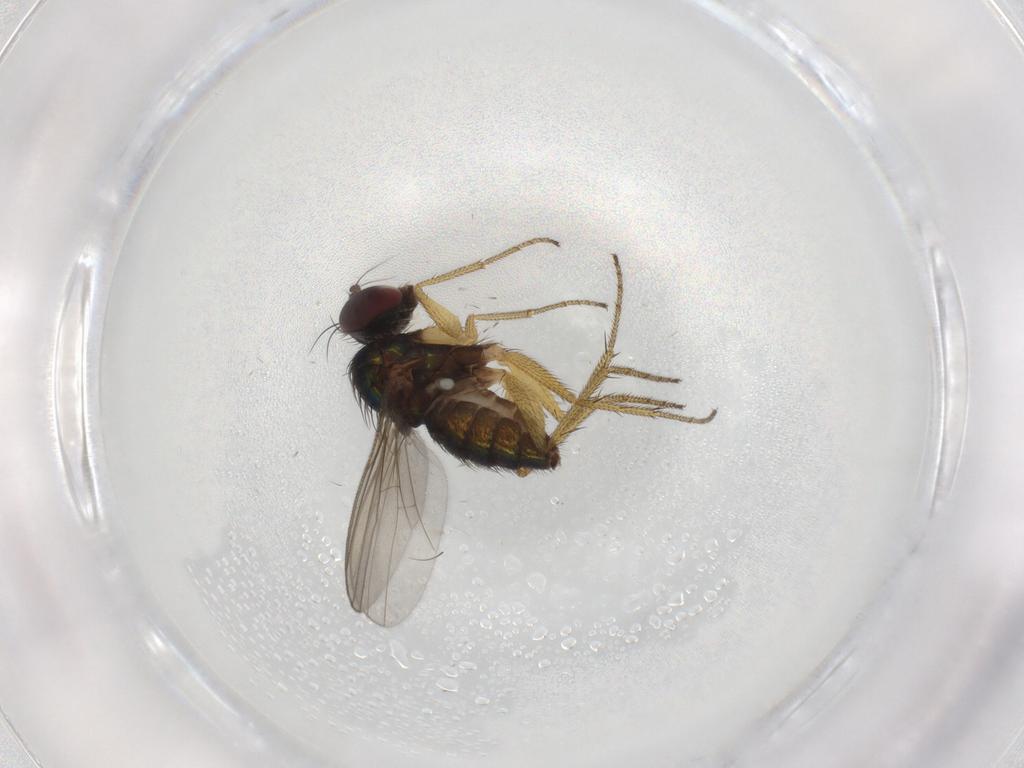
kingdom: Animalia
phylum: Arthropoda
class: Insecta
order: Diptera
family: Dolichopodidae
